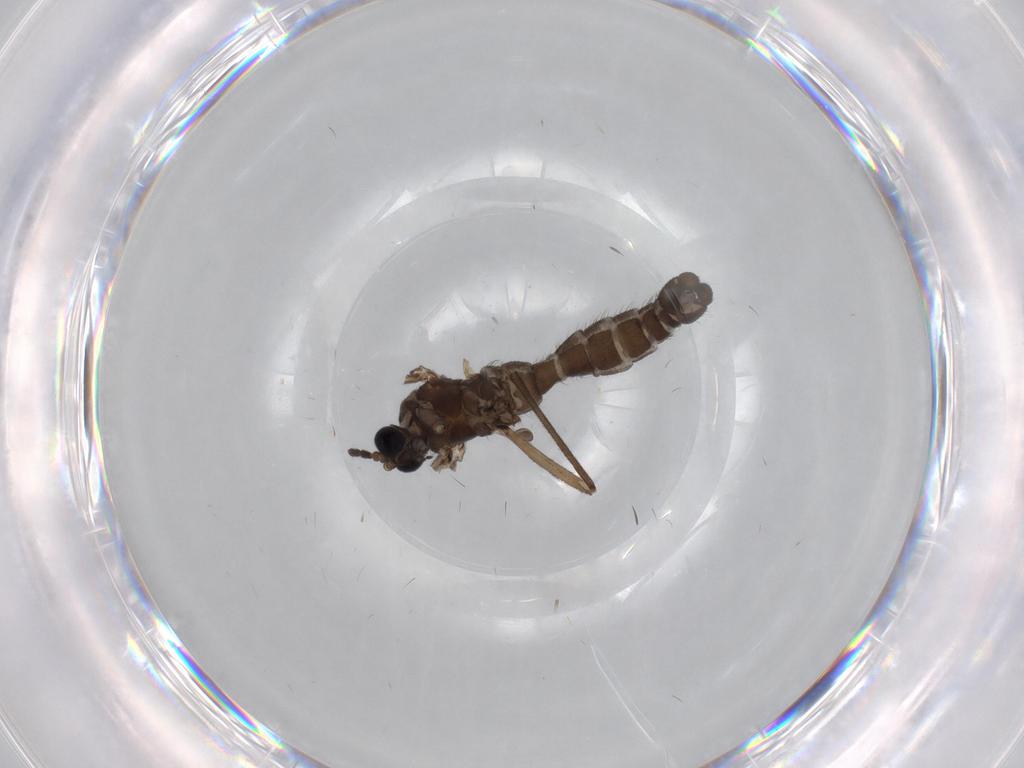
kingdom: Animalia
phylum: Arthropoda
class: Insecta
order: Diptera
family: Sciaridae
